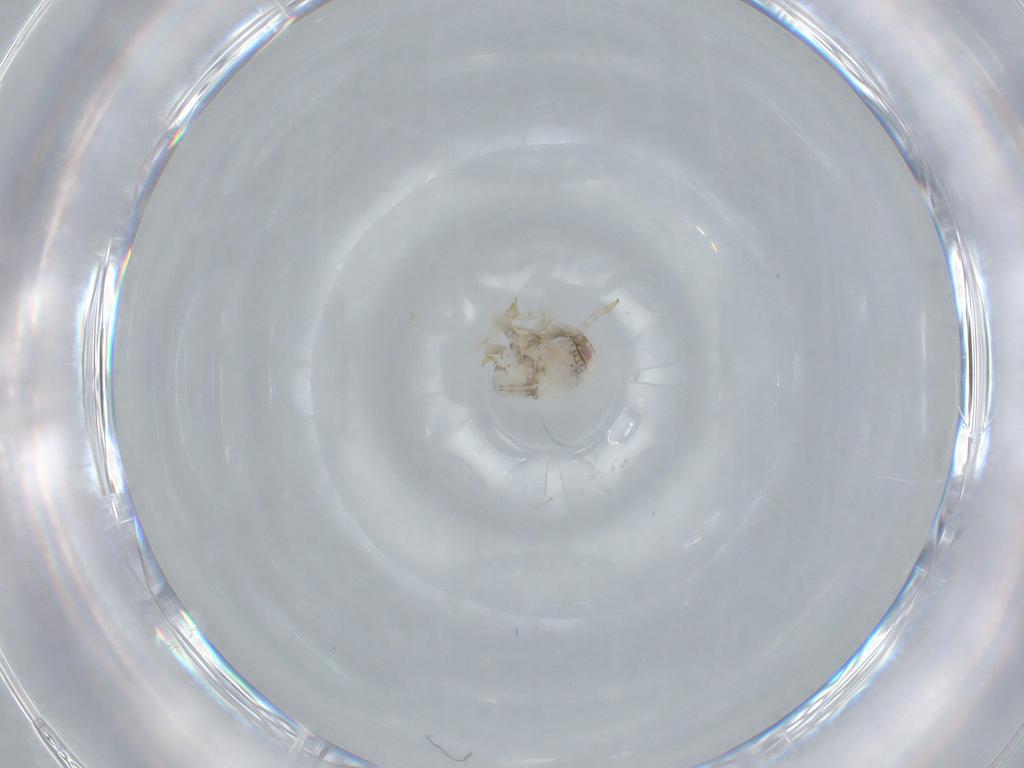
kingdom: Animalia
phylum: Arthropoda
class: Insecta
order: Hemiptera
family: Acanaloniidae
